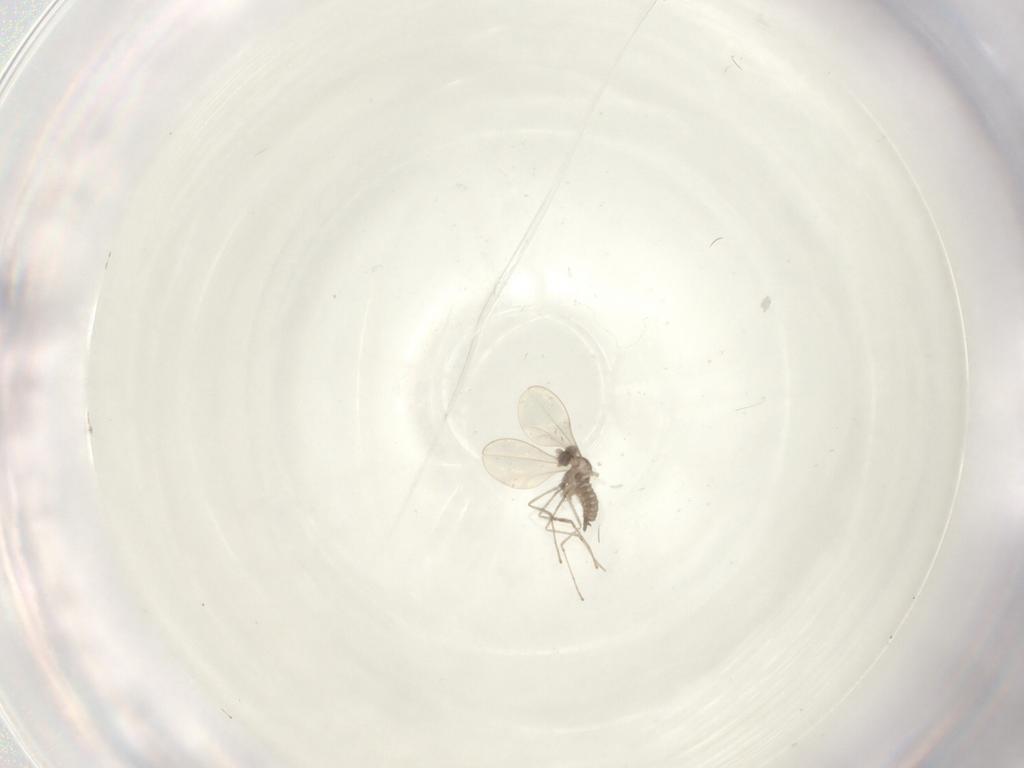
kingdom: Animalia
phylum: Arthropoda
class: Insecta
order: Diptera
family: Cecidomyiidae
